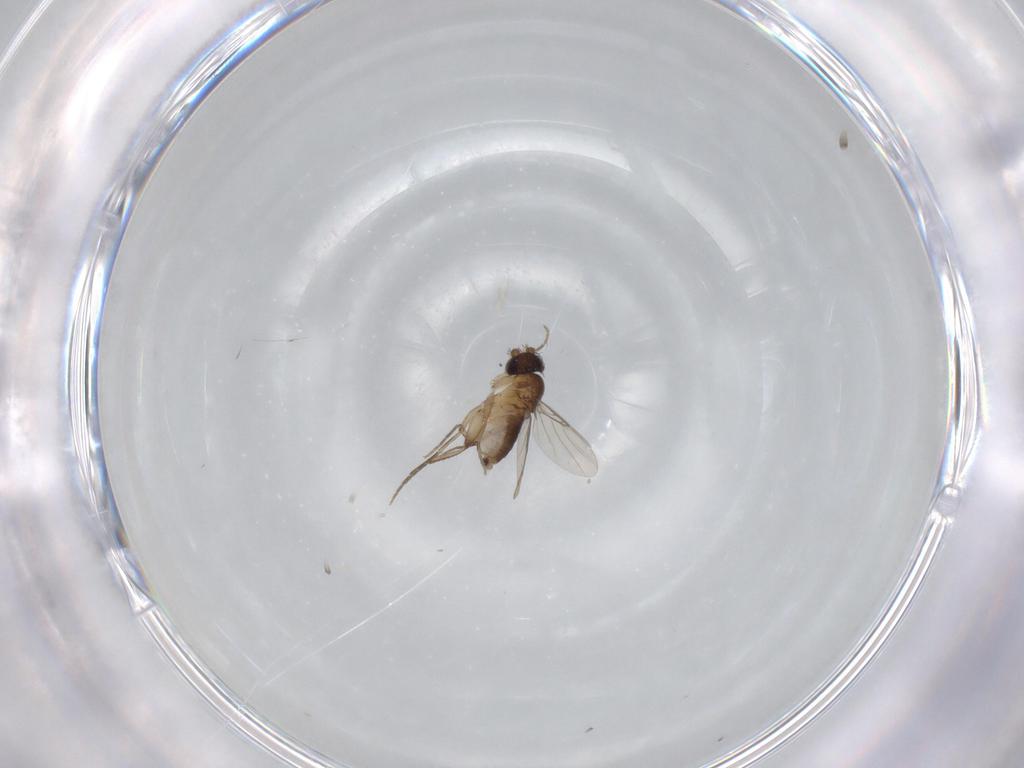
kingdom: Animalia
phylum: Arthropoda
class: Insecta
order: Diptera
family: Phoridae
